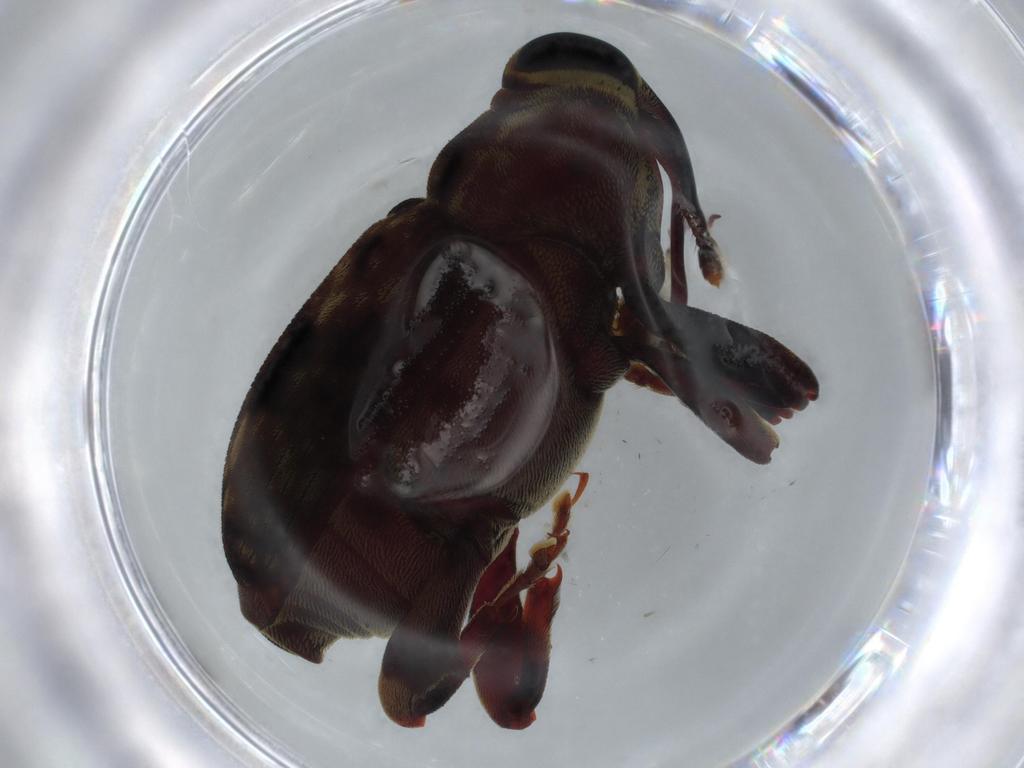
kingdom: Animalia
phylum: Arthropoda
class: Insecta
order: Coleoptera
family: Curculionidae
